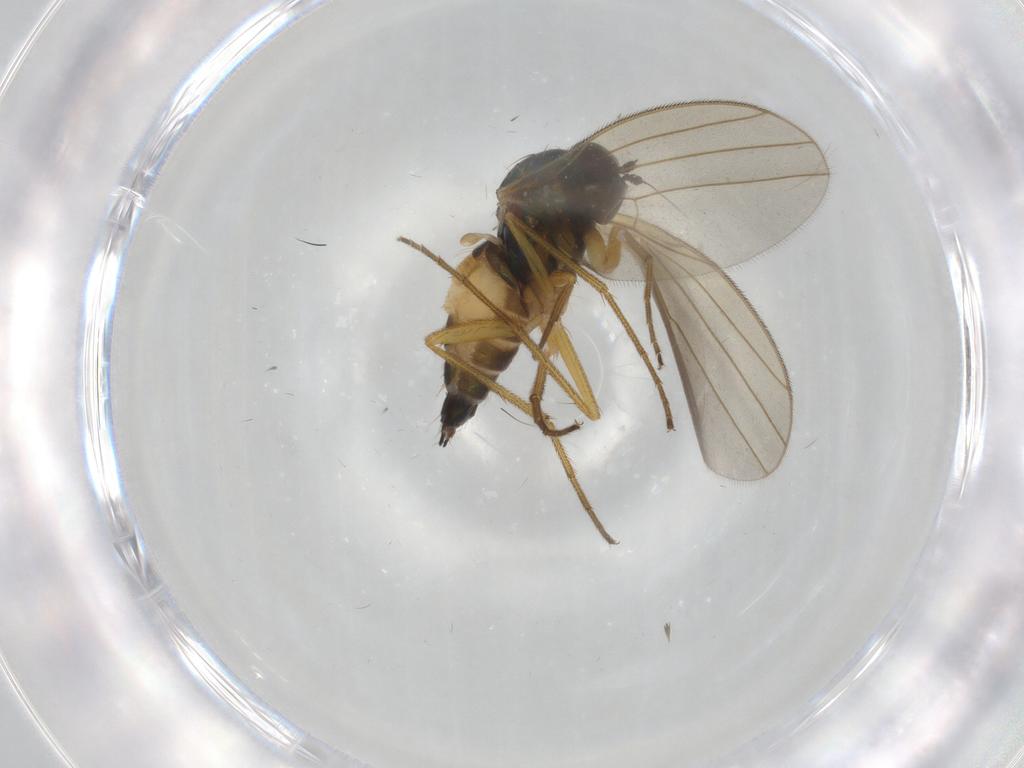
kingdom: Animalia
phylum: Arthropoda
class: Insecta
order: Diptera
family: Dolichopodidae
